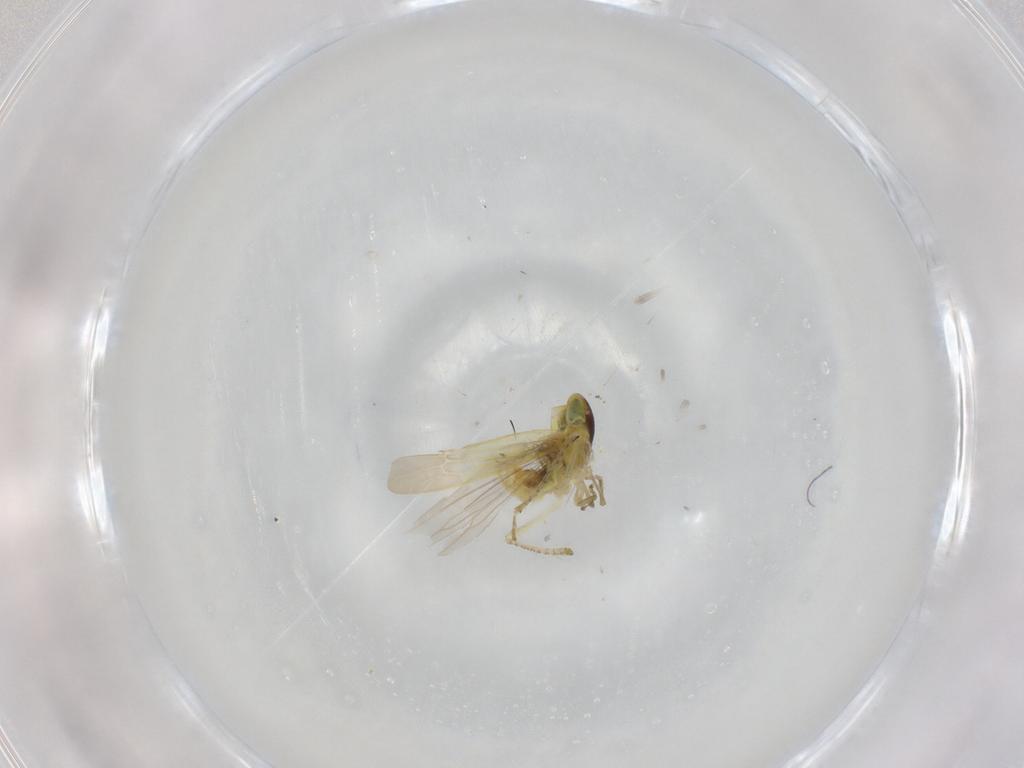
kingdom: Animalia
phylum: Arthropoda
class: Insecta
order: Hemiptera
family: Cicadellidae
